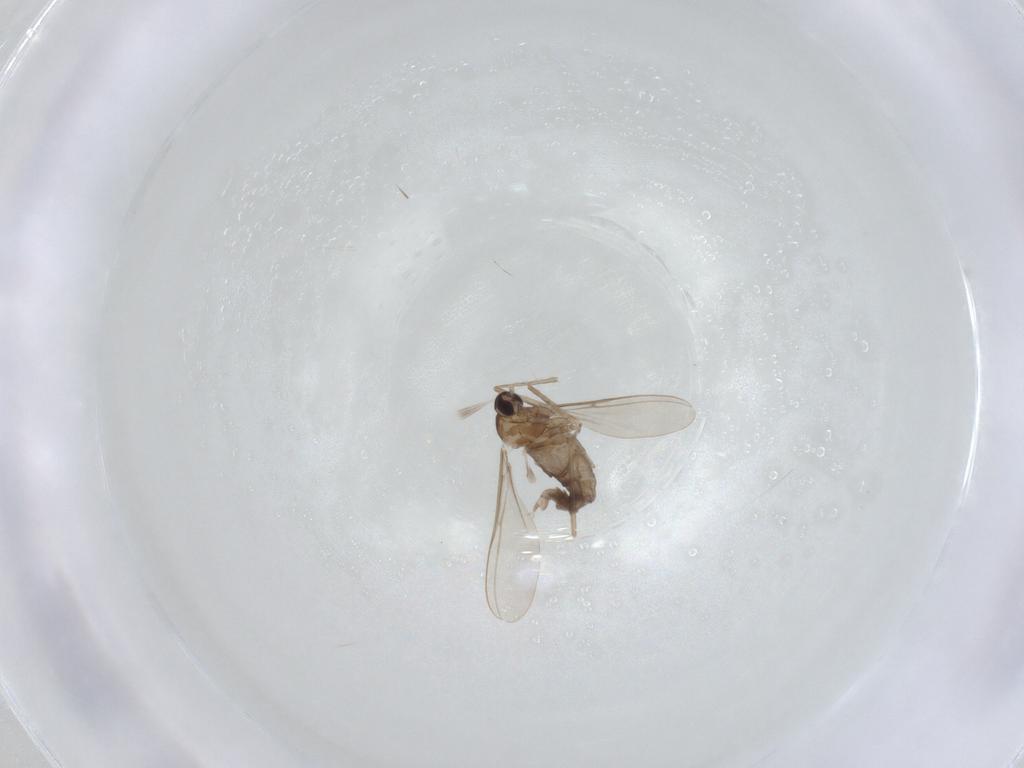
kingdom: Animalia
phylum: Arthropoda
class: Insecta
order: Diptera
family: Cecidomyiidae
